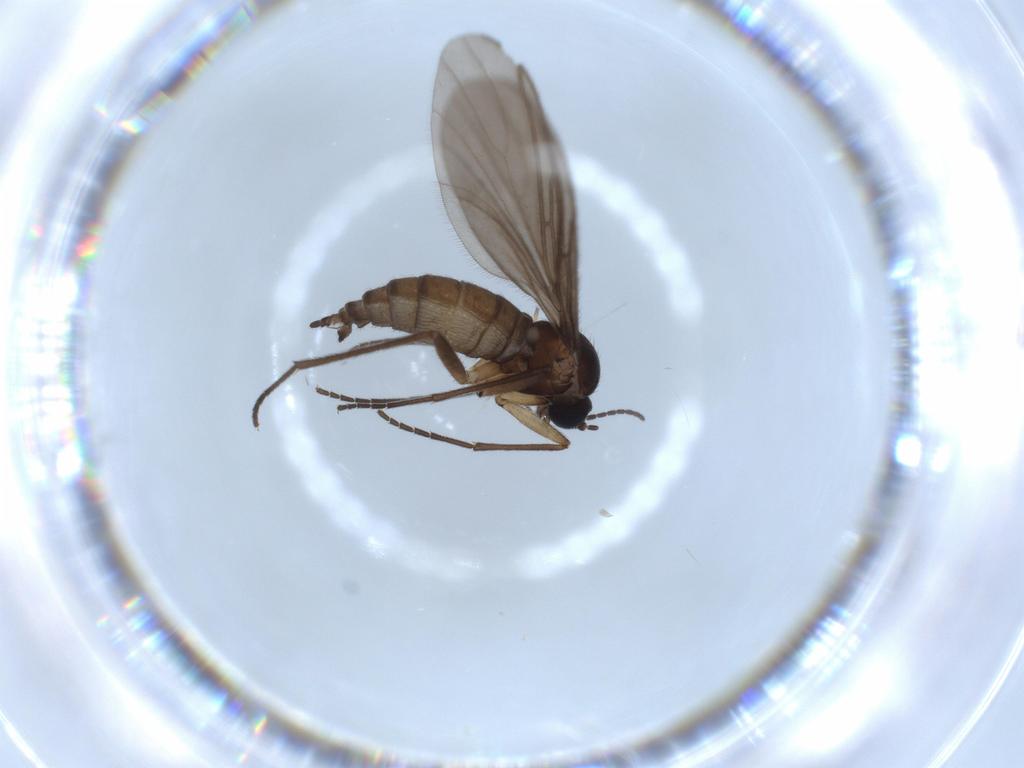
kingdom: Animalia
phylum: Arthropoda
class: Insecta
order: Diptera
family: Sciaridae
